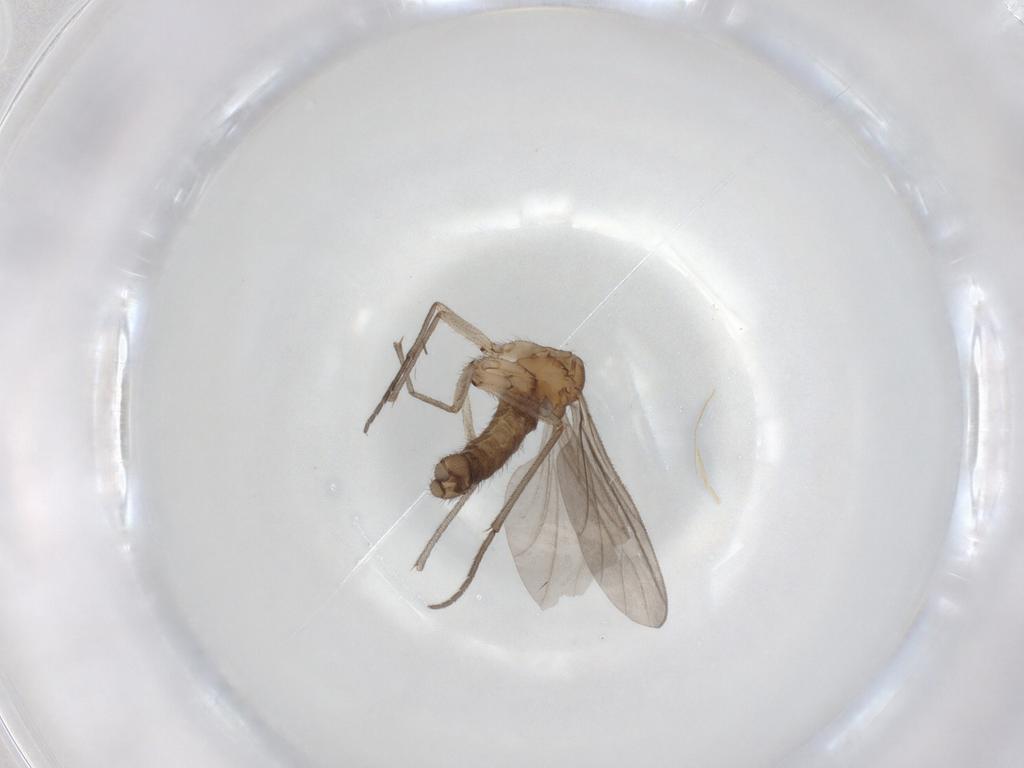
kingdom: Animalia
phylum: Arthropoda
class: Insecta
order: Diptera
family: Sciaridae
